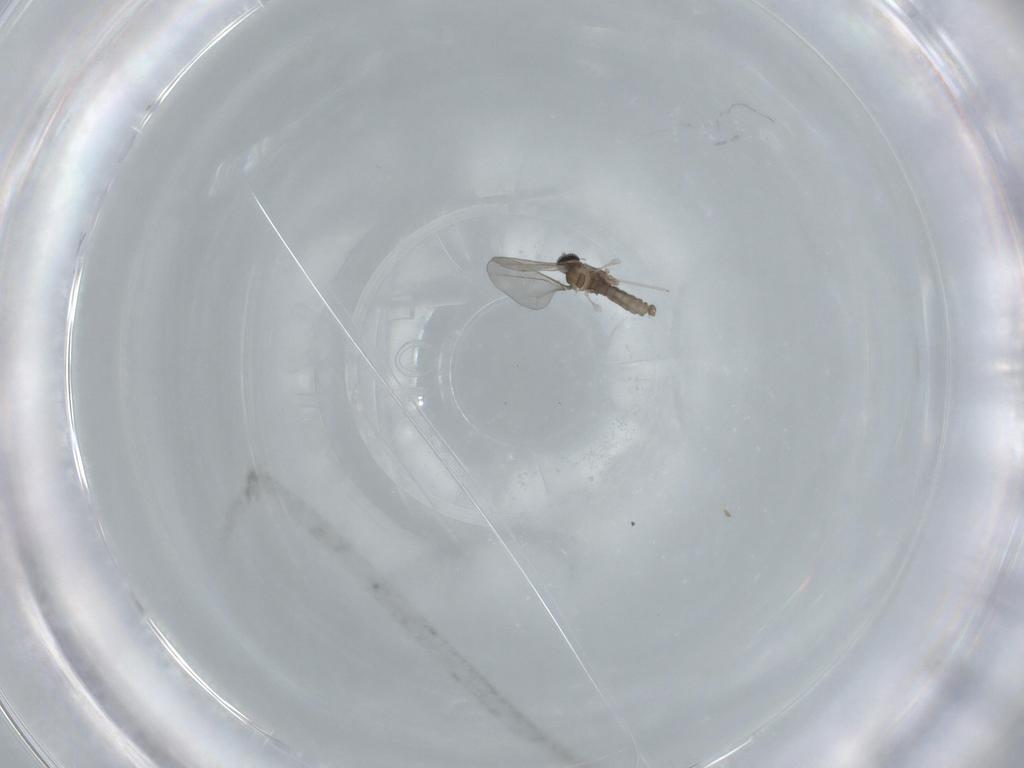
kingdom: Animalia
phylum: Arthropoda
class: Insecta
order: Diptera
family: Cecidomyiidae
